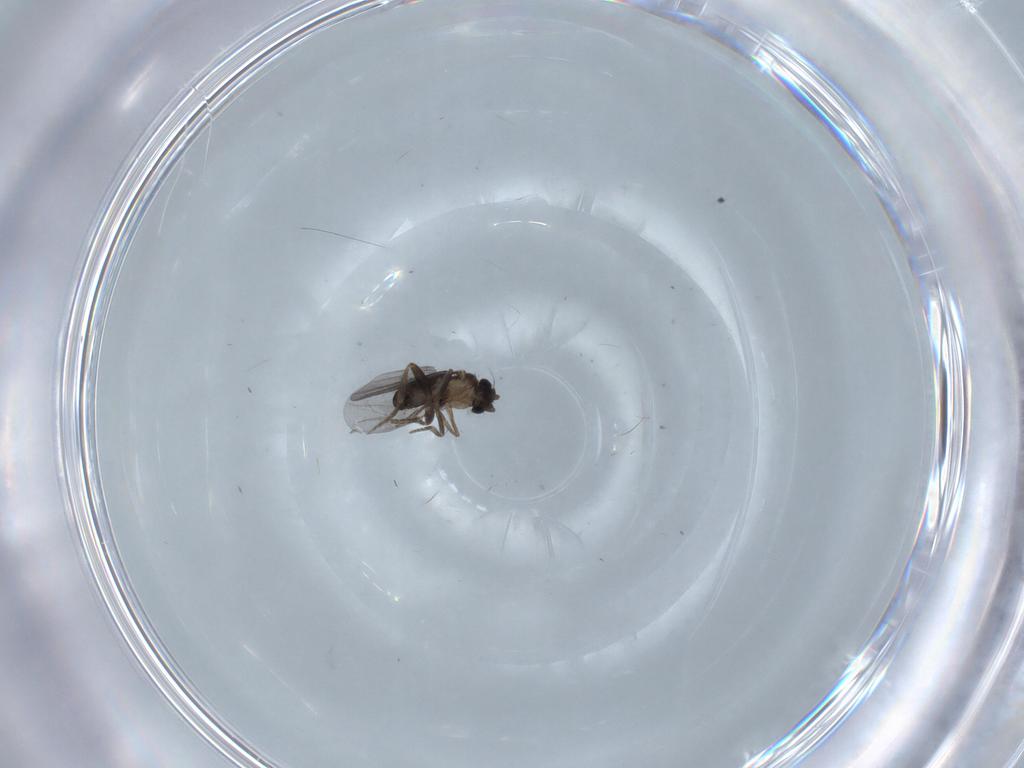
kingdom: Animalia
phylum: Arthropoda
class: Insecta
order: Diptera
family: Phoridae
